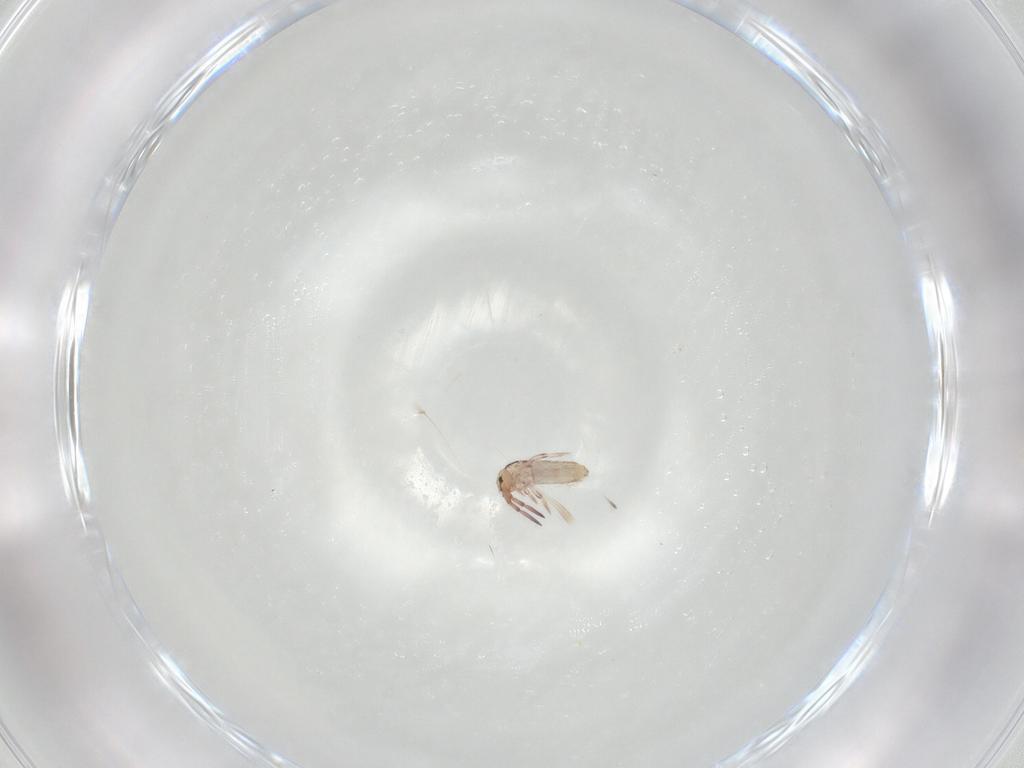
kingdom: Animalia
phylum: Arthropoda
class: Collembola
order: Entomobryomorpha
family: Entomobryidae
